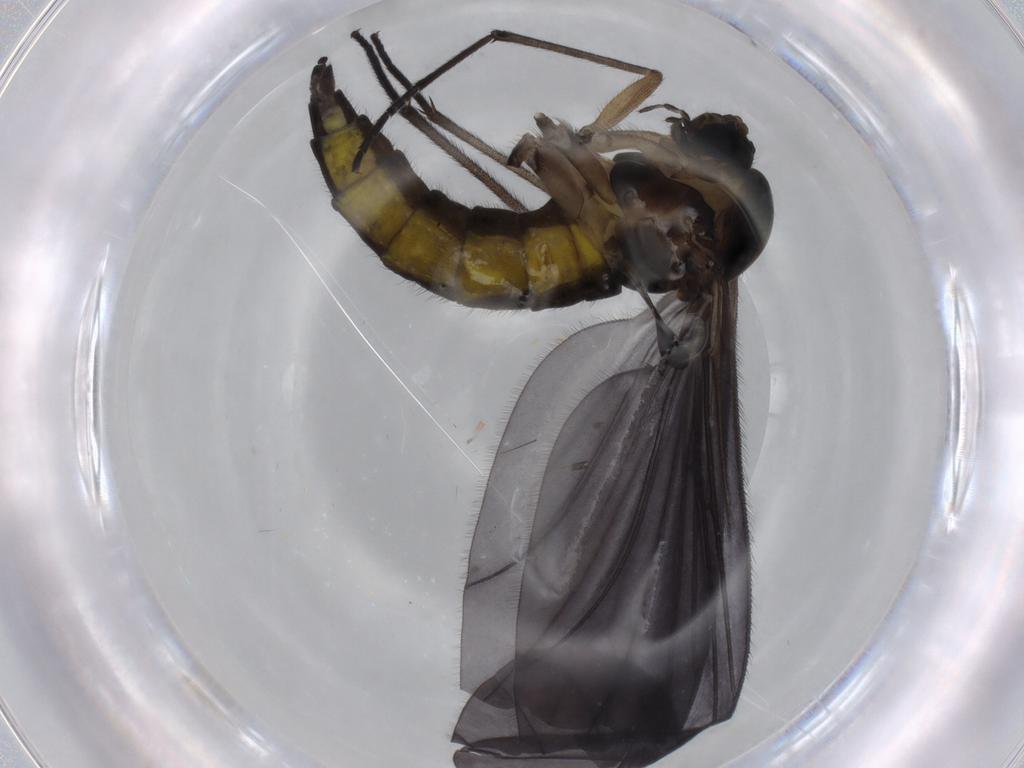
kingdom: Animalia
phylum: Arthropoda
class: Insecta
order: Diptera
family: Sciaridae
